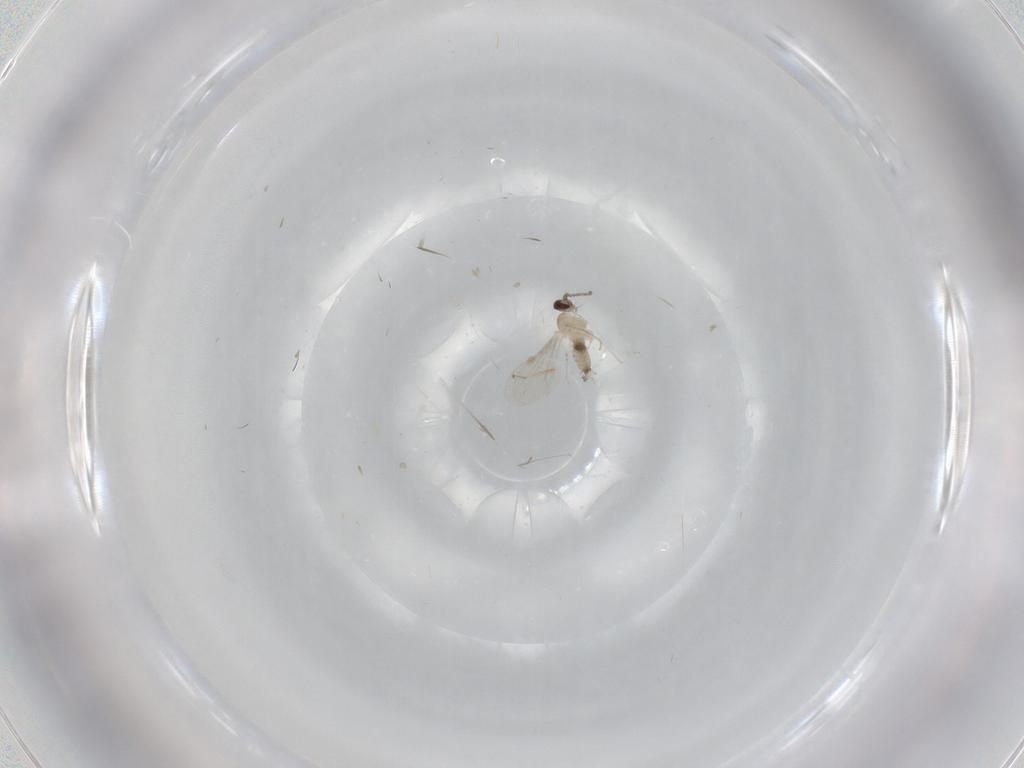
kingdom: Animalia
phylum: Arthropoda
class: Insecta
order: Diptera
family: Cecidomyiidae
